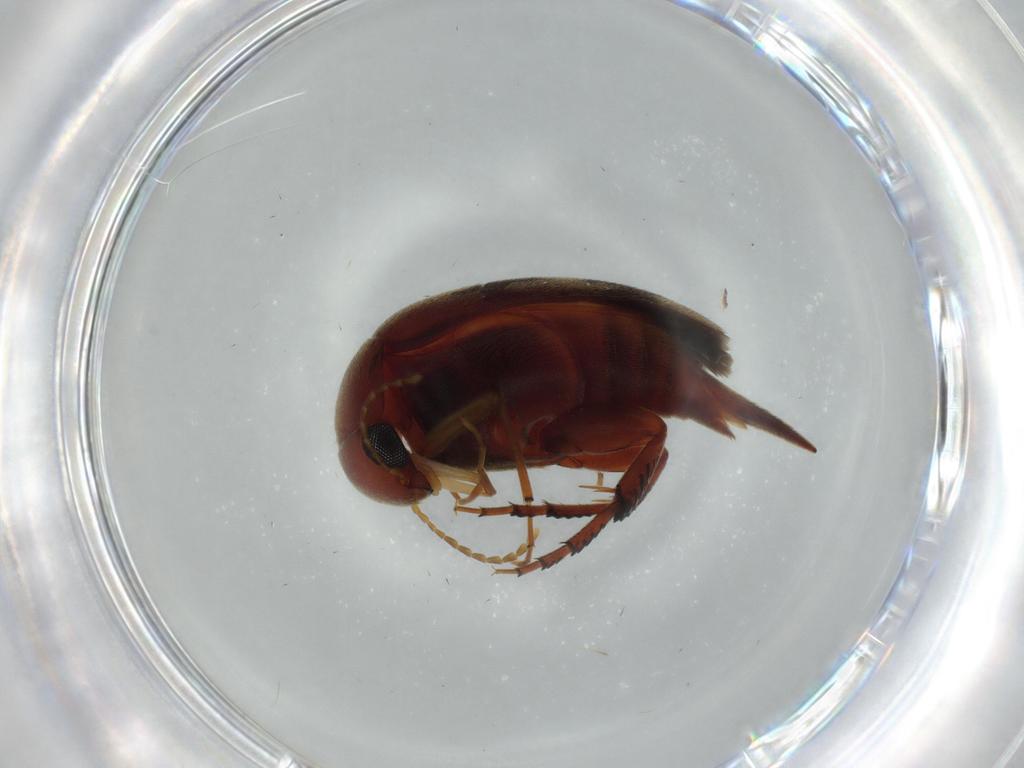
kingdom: Animalia
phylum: Arthropoda
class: Insecta
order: Coleoptera
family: Mordellidae
